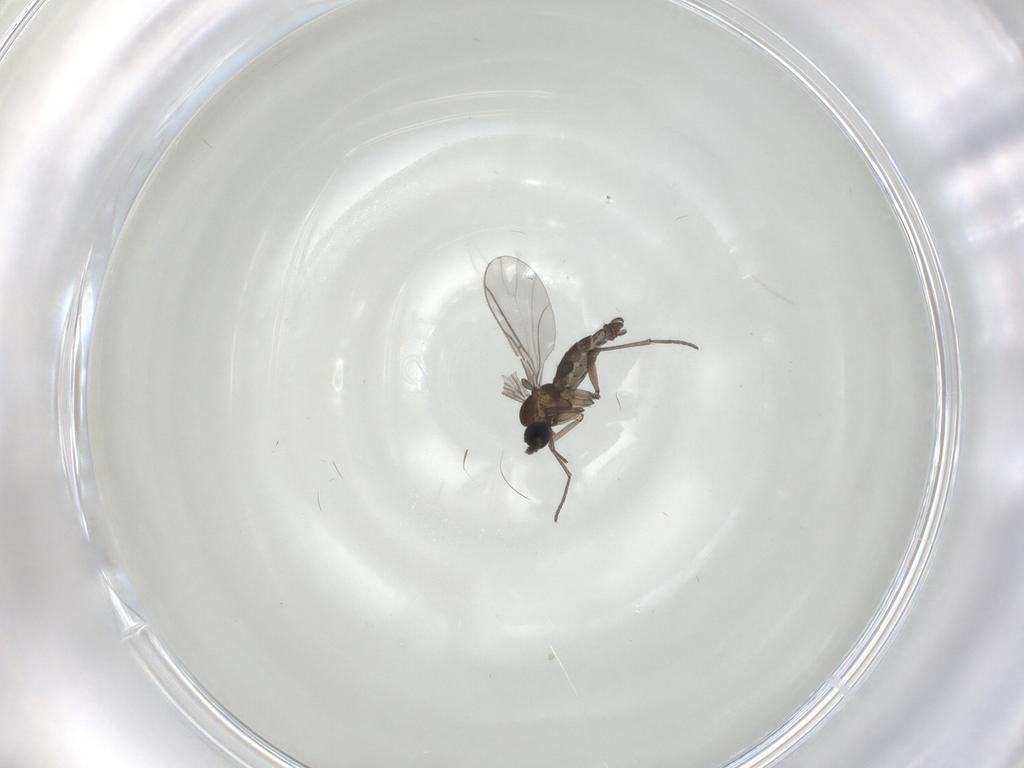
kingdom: Animalia
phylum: Arthropoda
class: Insecta
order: Diptera
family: Sciaridae
